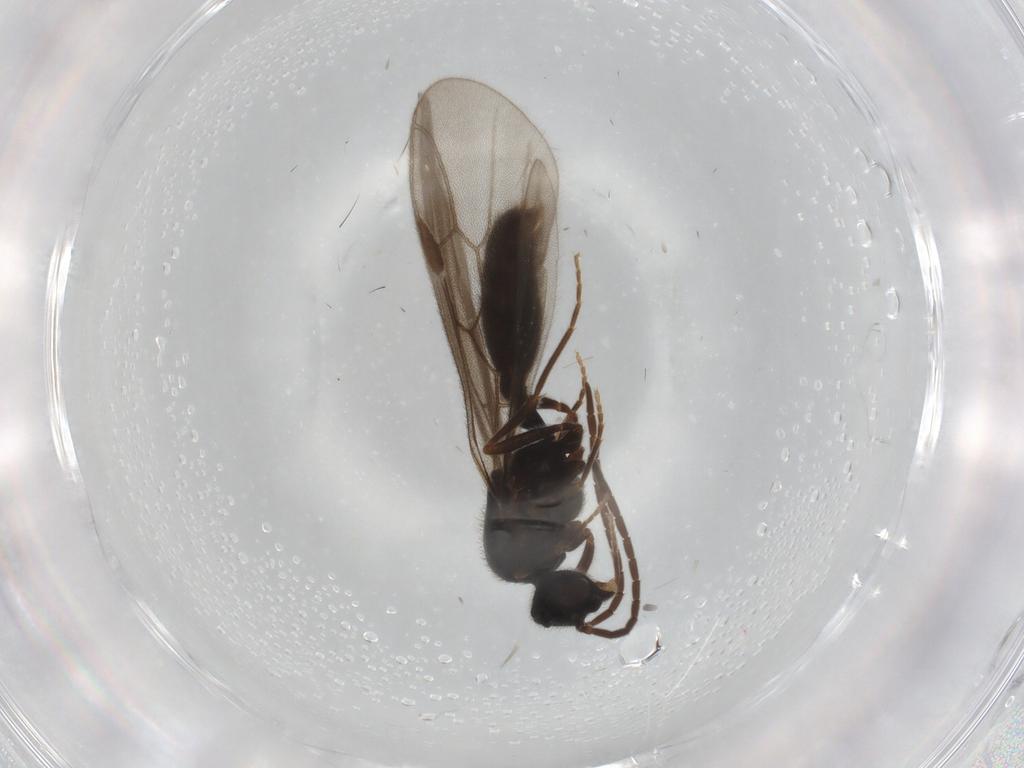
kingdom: Animalia
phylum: Arthropoda
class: Insecta
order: Hymenoptera
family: Formicidae
